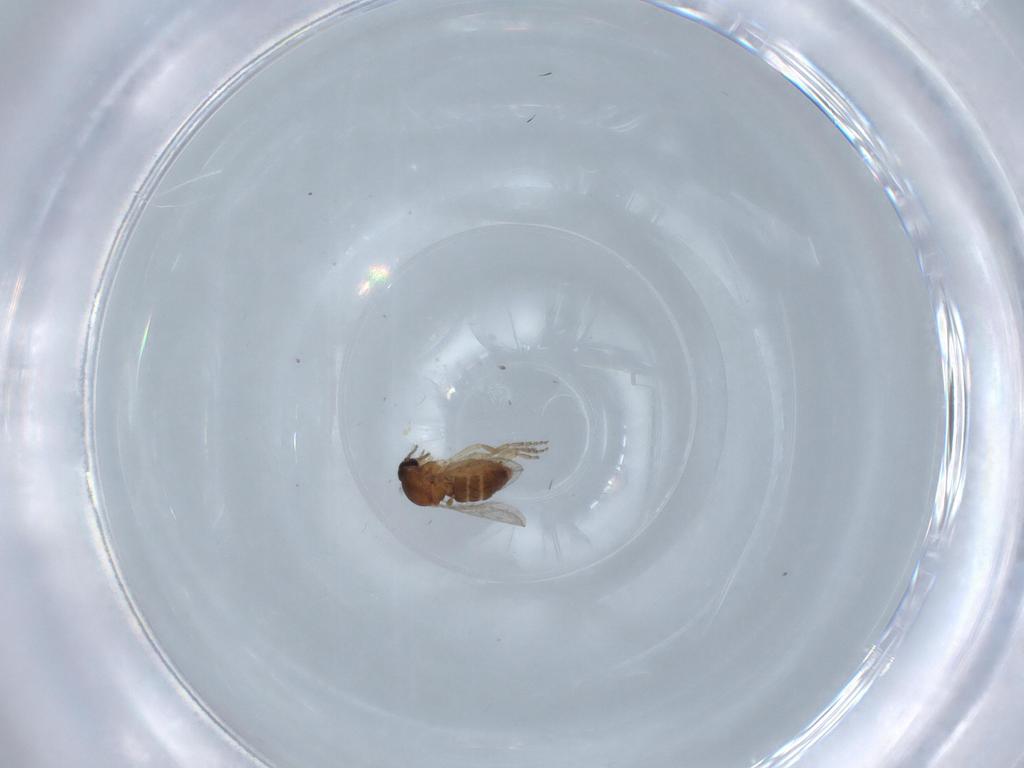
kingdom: Animalia
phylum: Arthropoda
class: Insecta
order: Diptera
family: Ceratopogonidae
